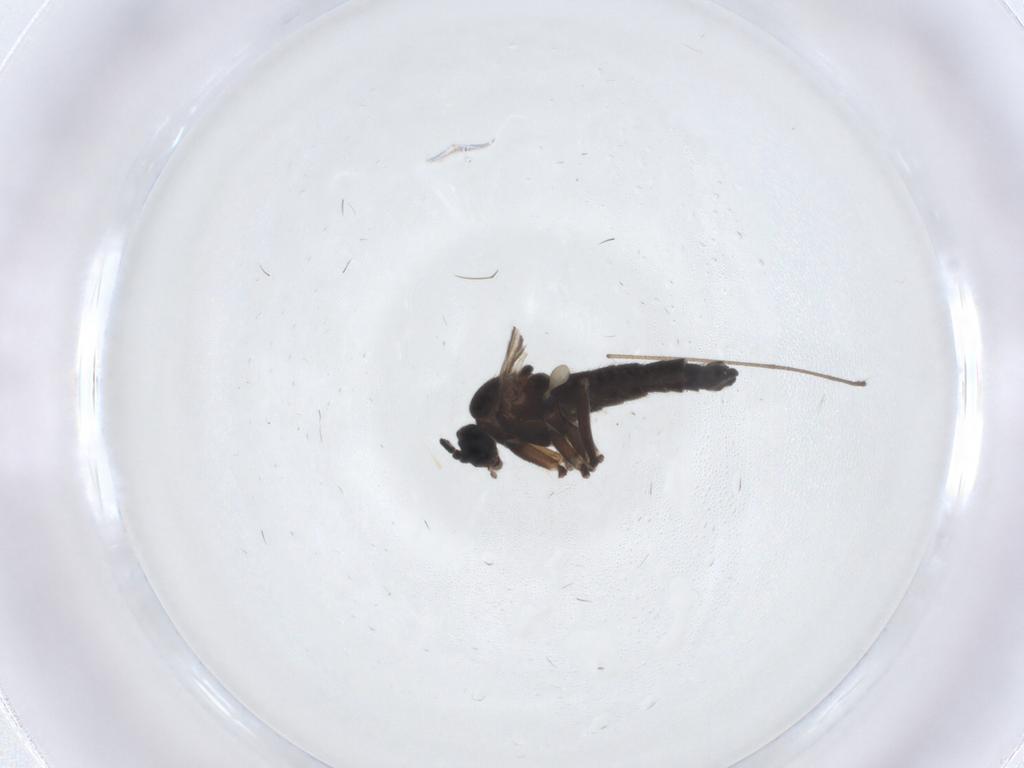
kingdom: Animalia
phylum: Arthropoda
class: Insecta
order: Diptera
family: Sciaridae
